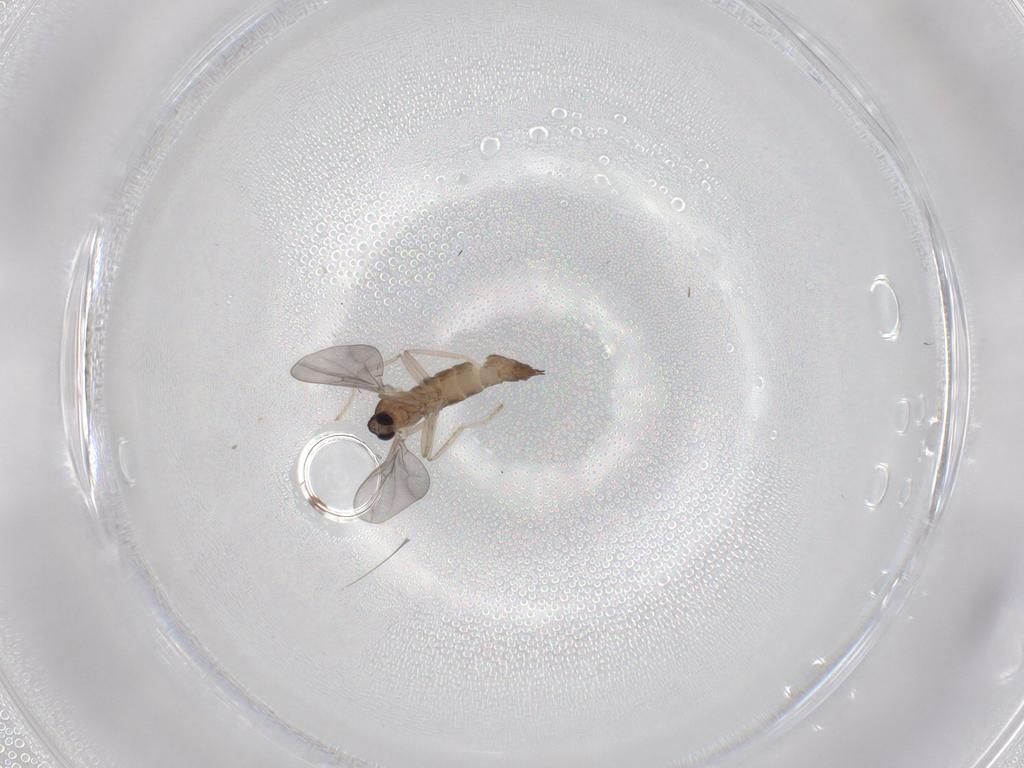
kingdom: Animalia
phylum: Arthropoda
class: Insecta
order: Diptera
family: Cecidomyiidae
